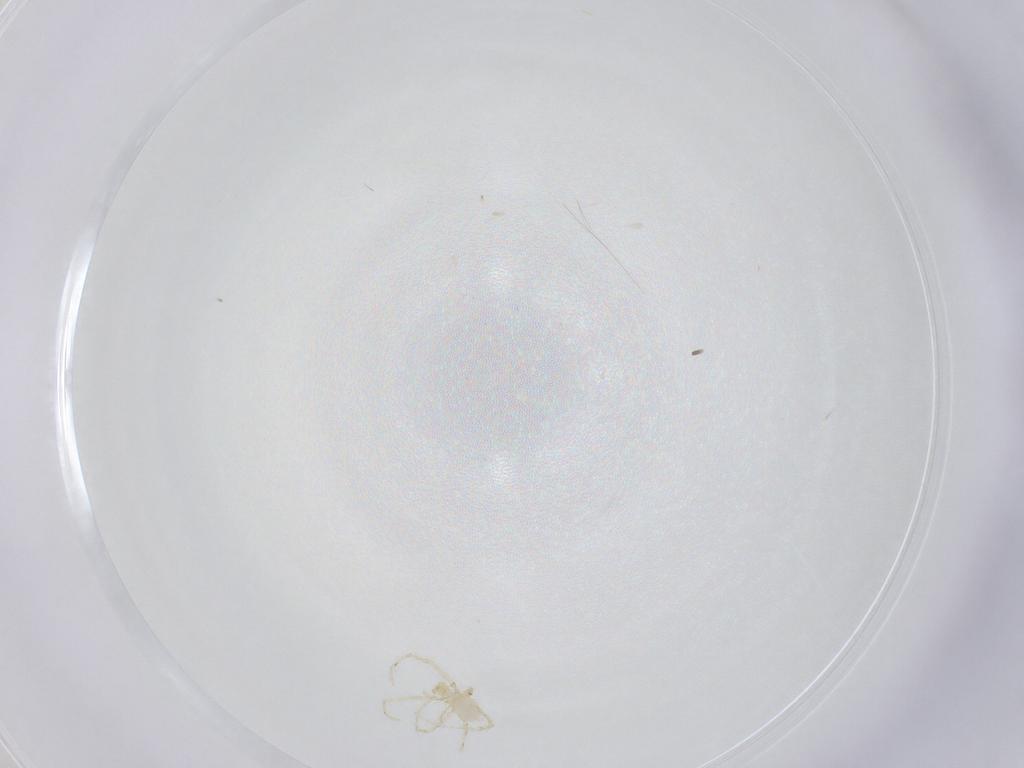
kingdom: Animalia
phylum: Arthropoda
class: Arachnida
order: Trombidiformes
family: Erythraeidae
